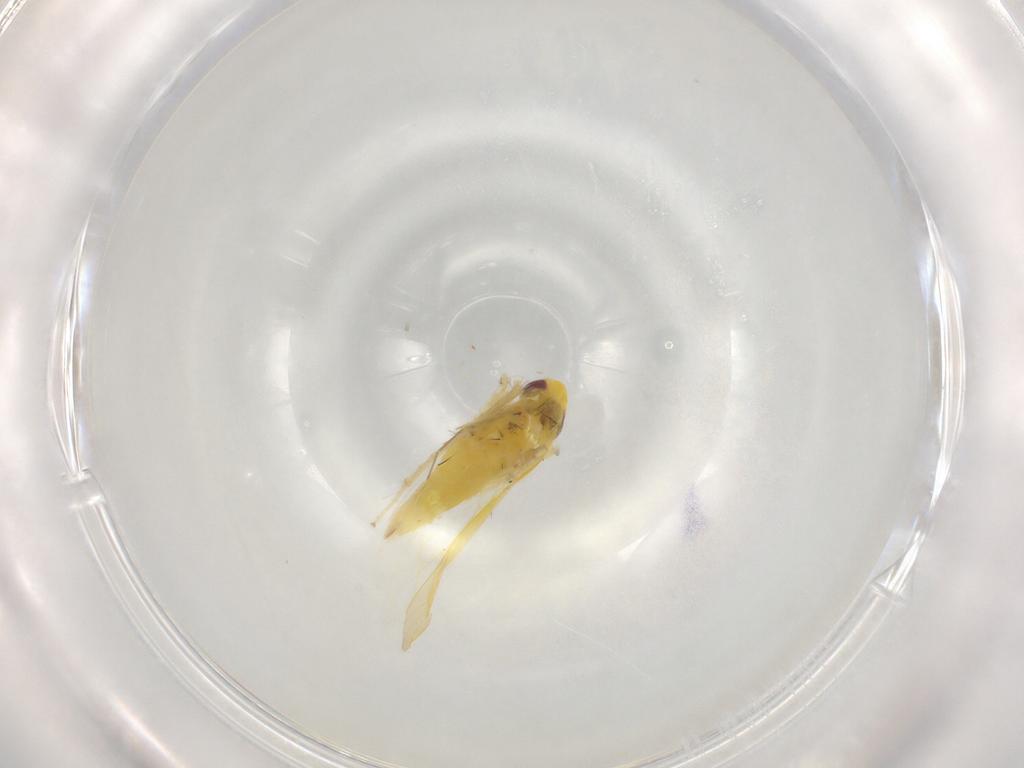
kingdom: Animalia
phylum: Arthropoda
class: Insecta
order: Hemiptera
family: Cicadellidae
